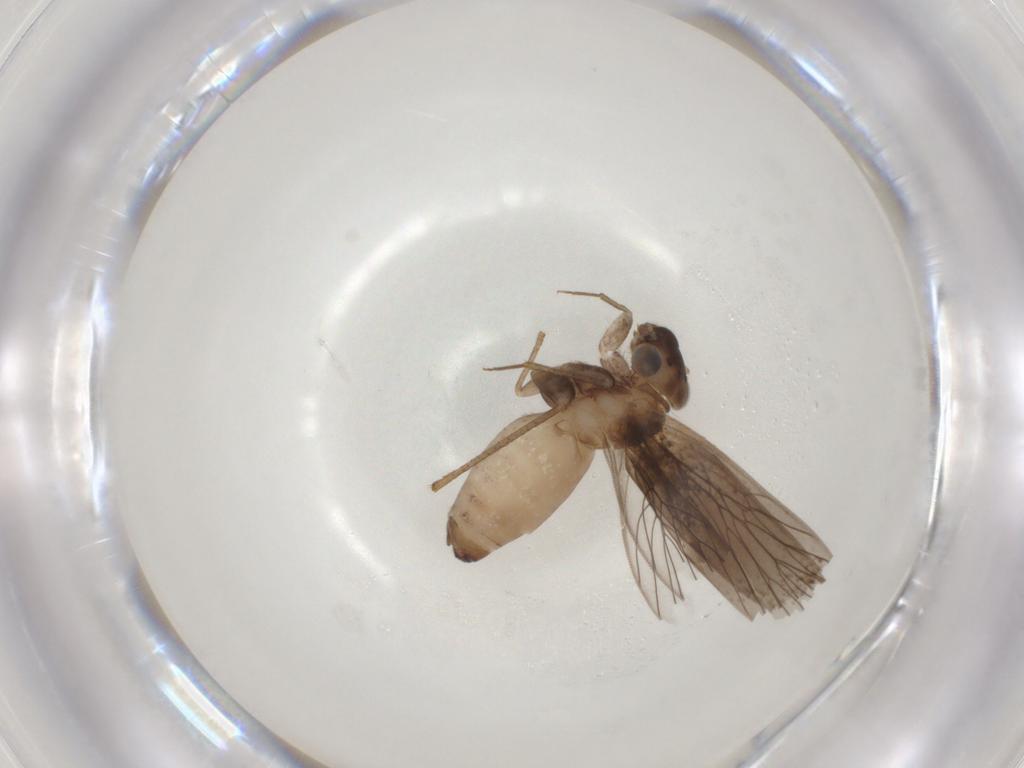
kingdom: Animalia
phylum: Arthropoda
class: Insecta
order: Psocodea
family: Lepidopsocidae
